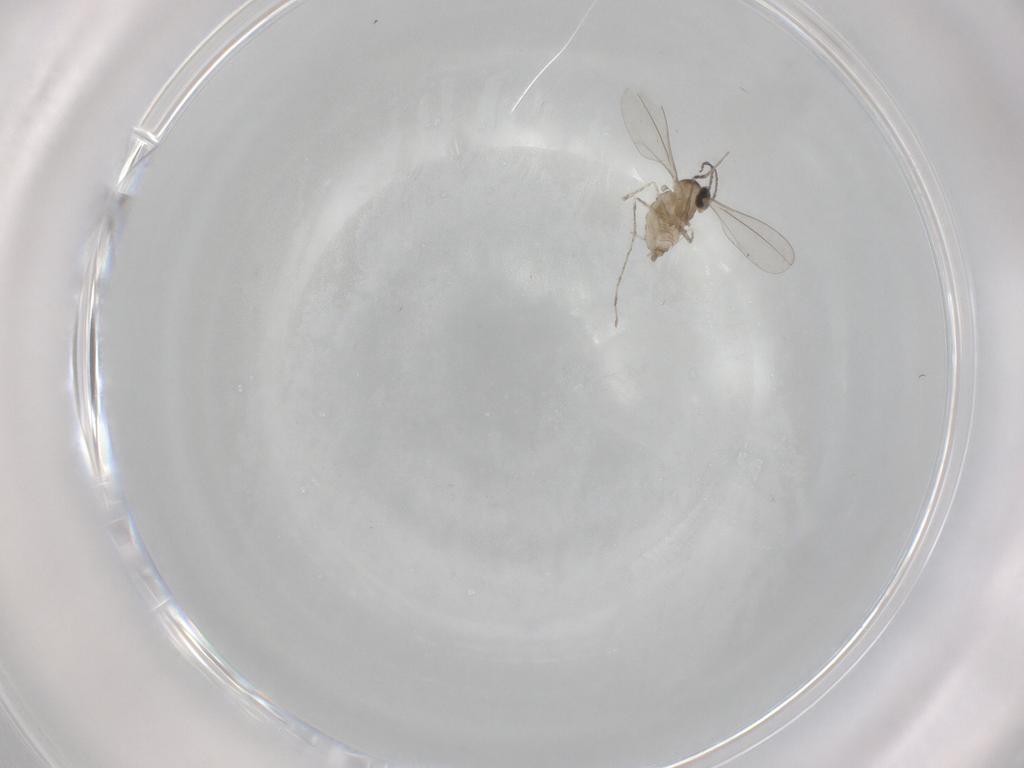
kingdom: Animalia
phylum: Arthropoda
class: Insecta
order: Diptera
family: Cecidomyiidae
